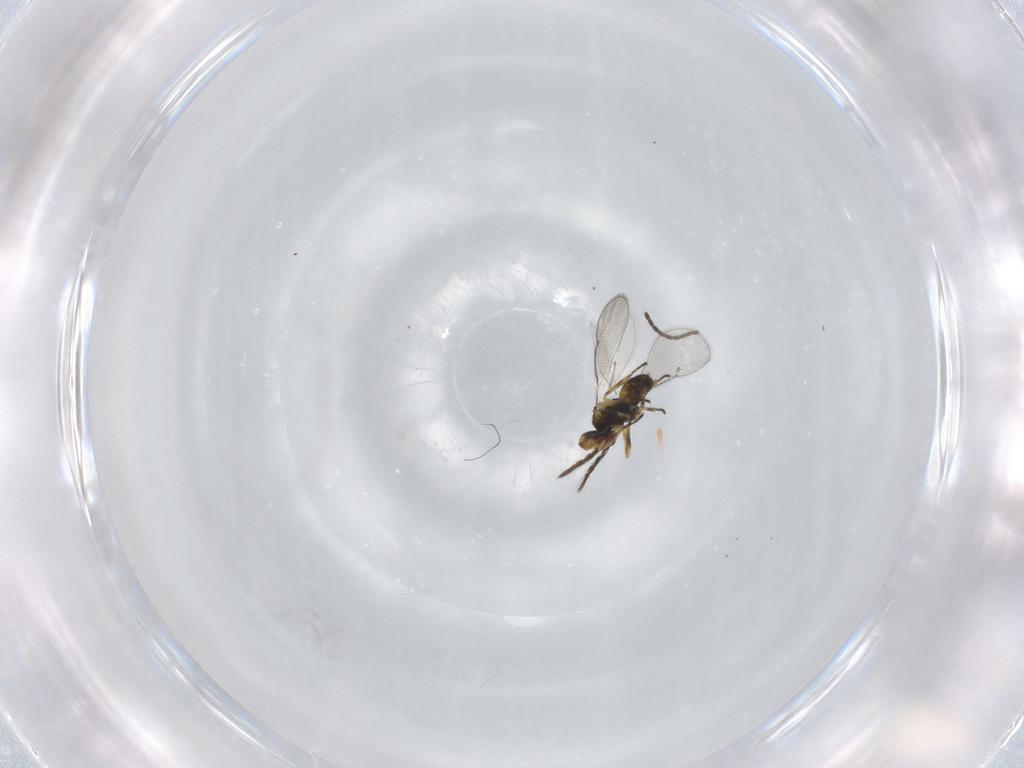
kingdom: Animalia
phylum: Arthropoda
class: Insecta
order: Hymenoptera
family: Eulophidae
